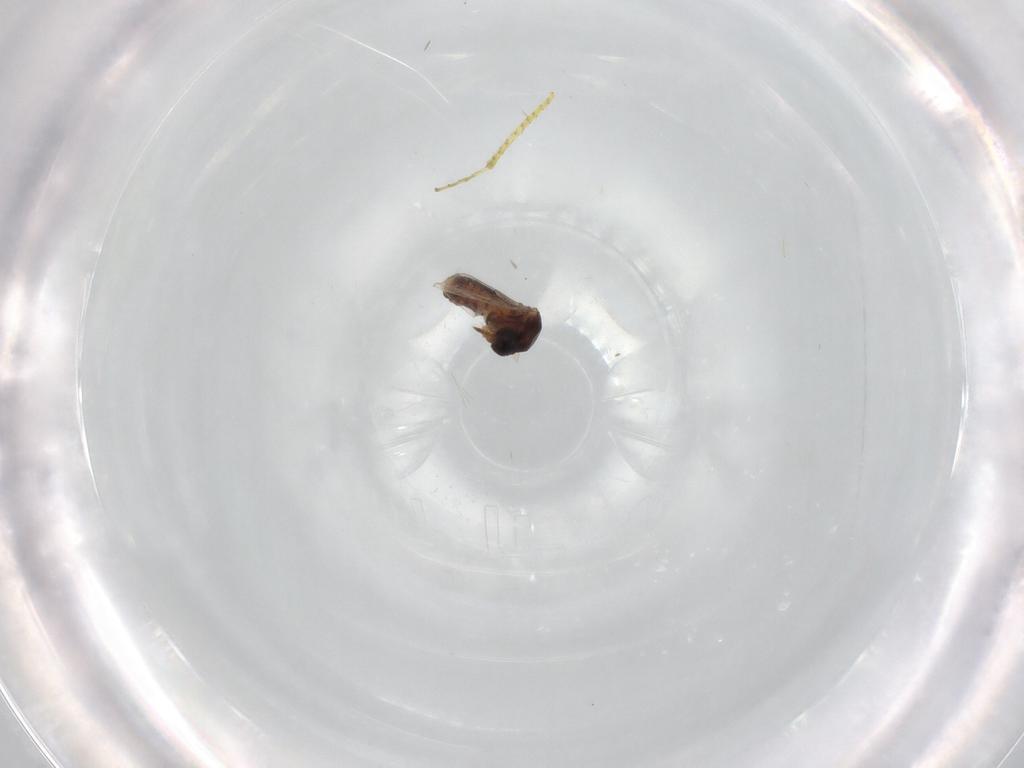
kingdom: Animalia
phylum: Arthropoda
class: Insecta
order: Diptera
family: Ceratopogonidae
